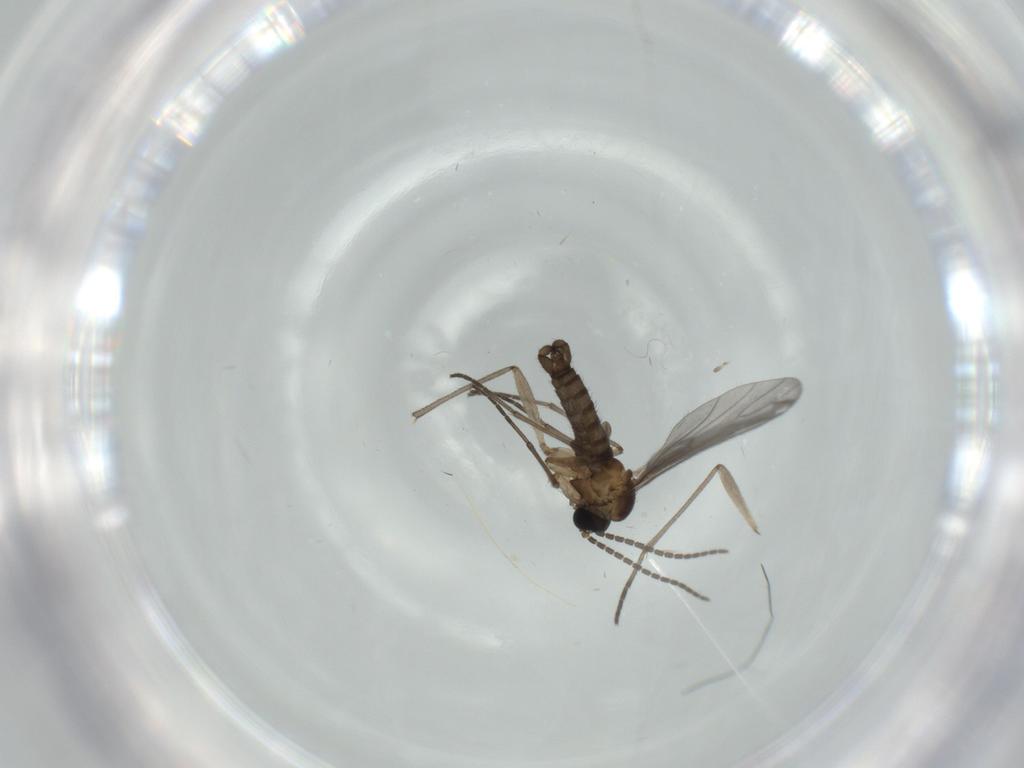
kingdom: Animalia
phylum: Arthropoda
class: Insecta
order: Diptera
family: Sciaridae
